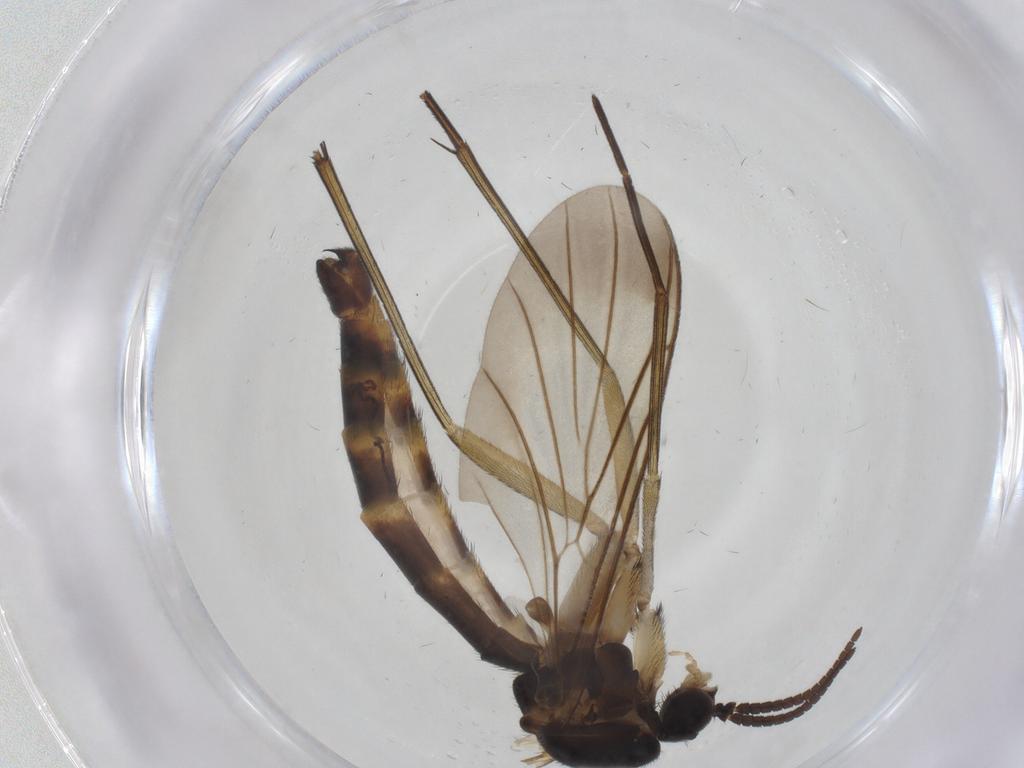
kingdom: Animalia
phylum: Arthropoda
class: Insecta
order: Diptera
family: Sciaridae
